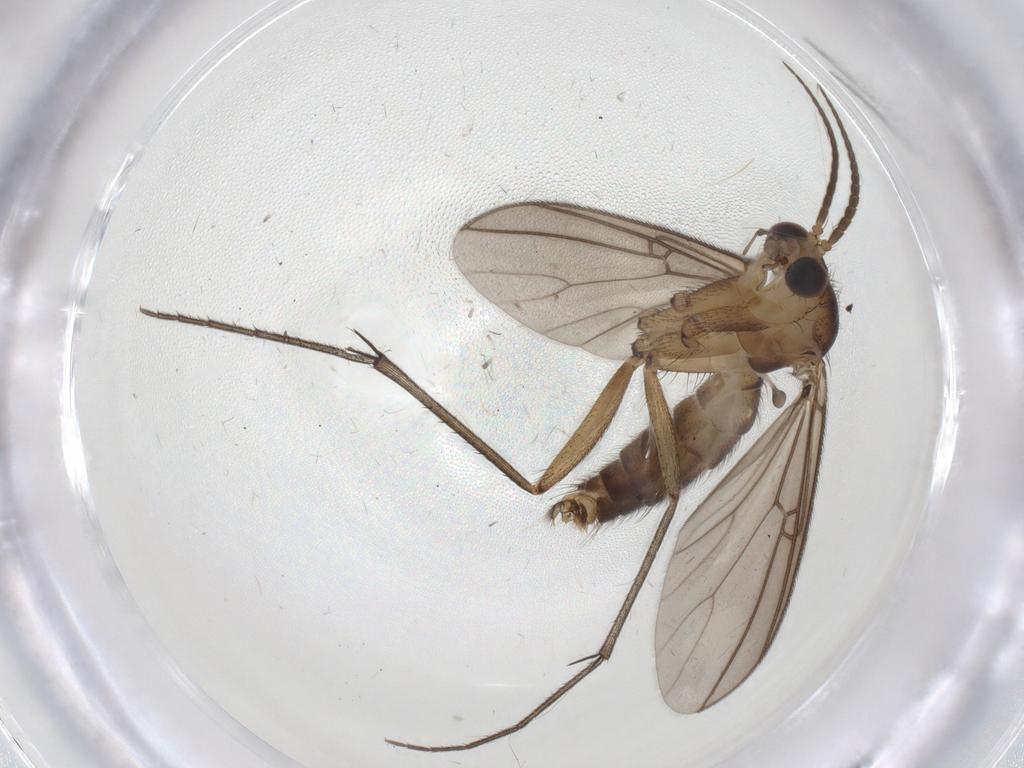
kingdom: Animalia
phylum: Arthropoda
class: Insecta
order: Diptera
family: Mycetophilidae
